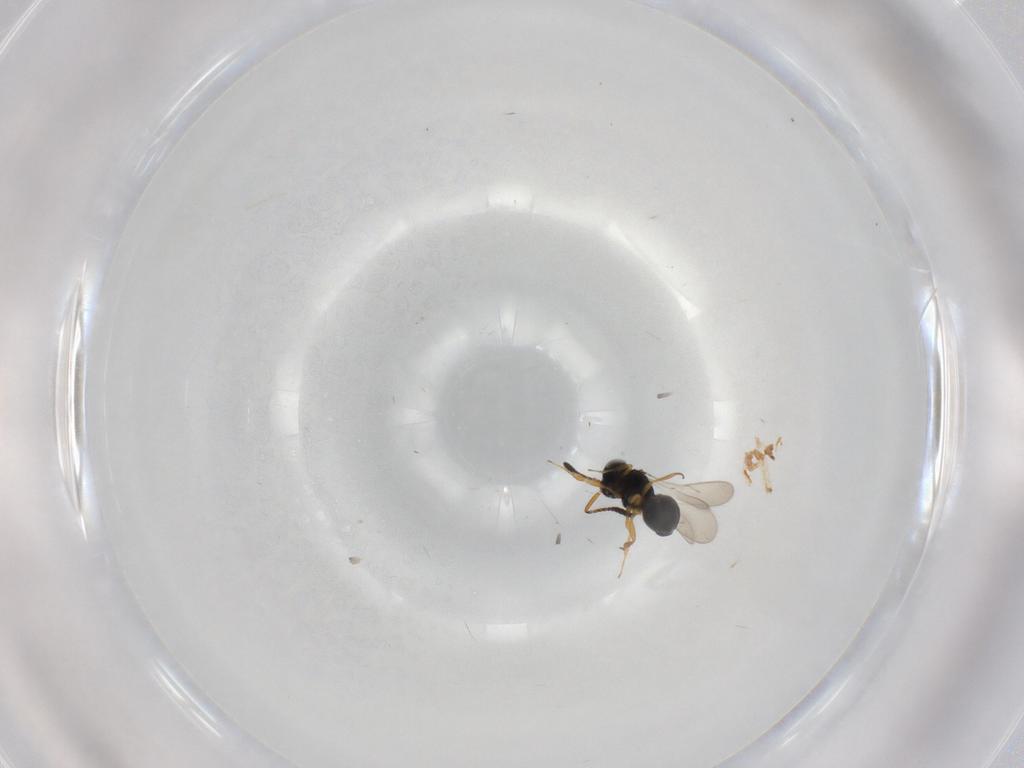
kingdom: Animalia
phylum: Arthropoda
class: Insecta
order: Hymenoptera
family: Scelionidae
